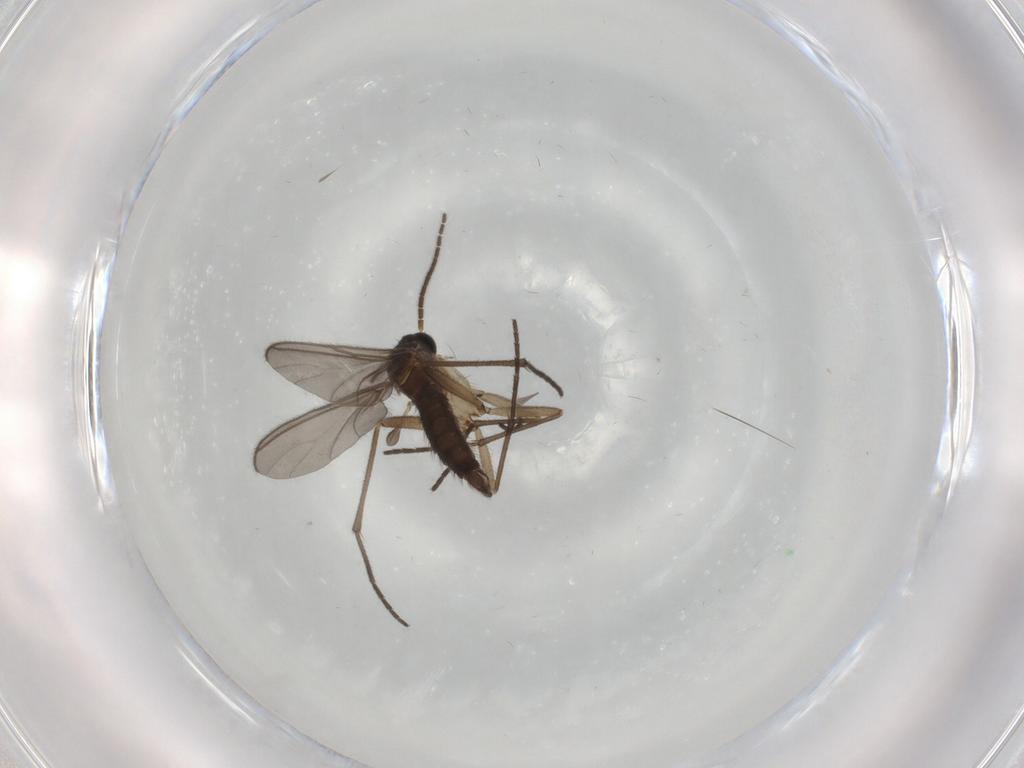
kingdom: Animalia
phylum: Arthropoda
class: Insecta
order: Diptera
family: Sciaridae
